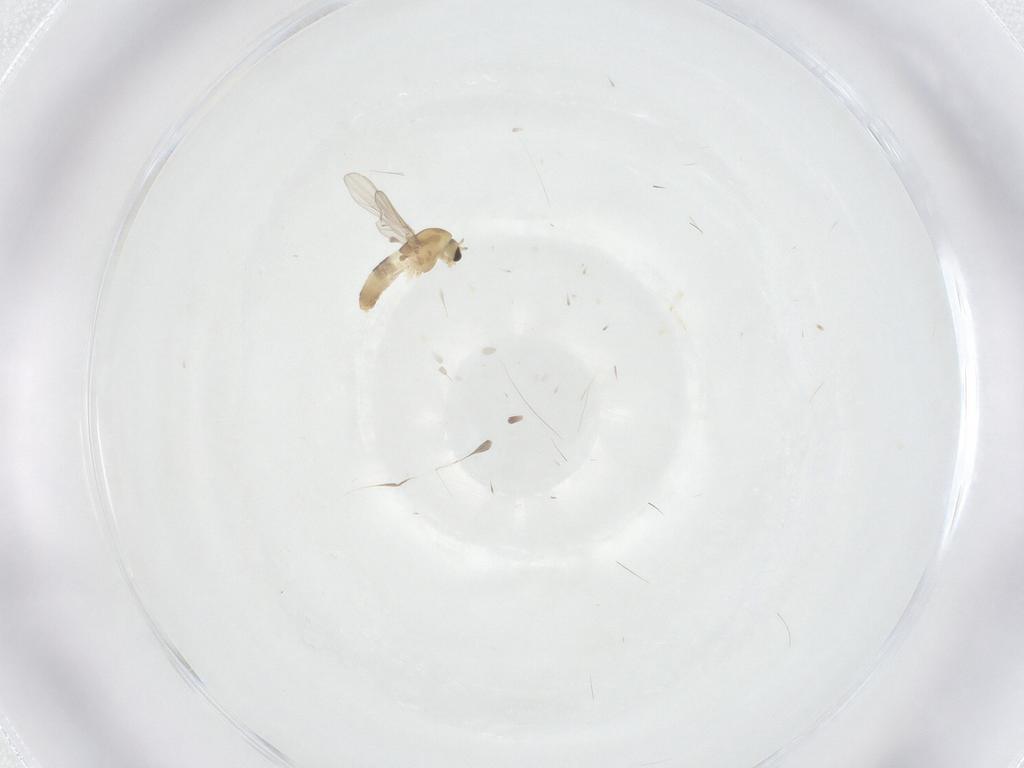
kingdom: Animalia
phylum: Arthropoda
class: Insecta
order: Diptera
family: Chironomidae
